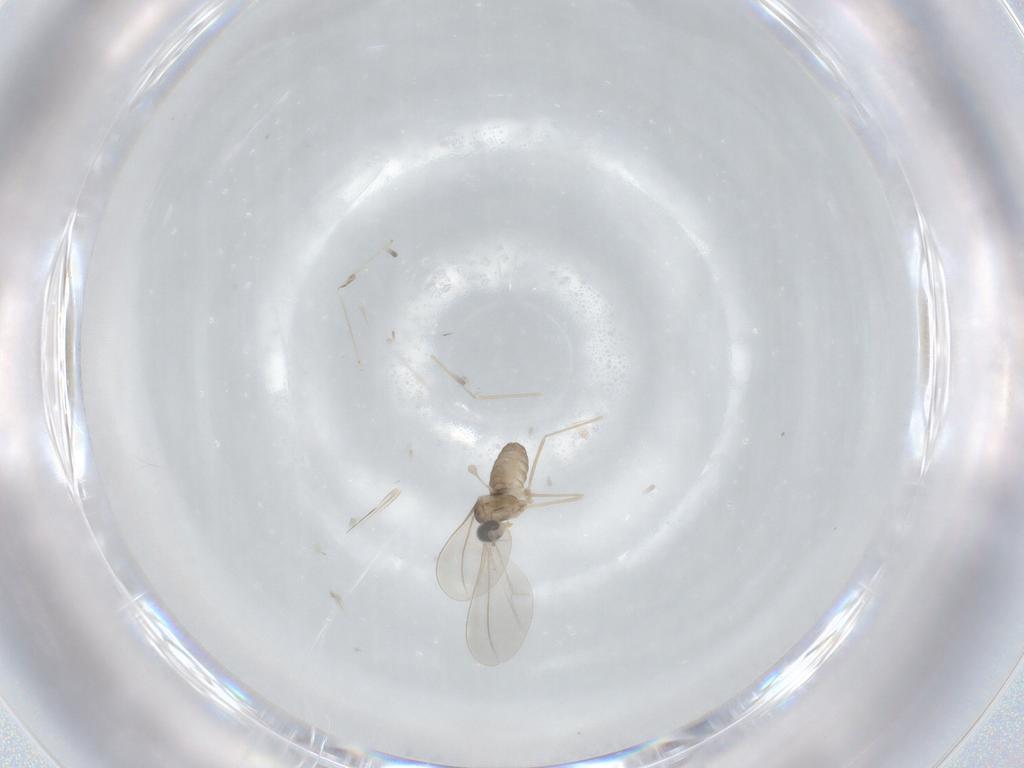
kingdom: Animalia
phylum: Arthropoda
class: Insecta
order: Diptera
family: Cecidomyiidae
